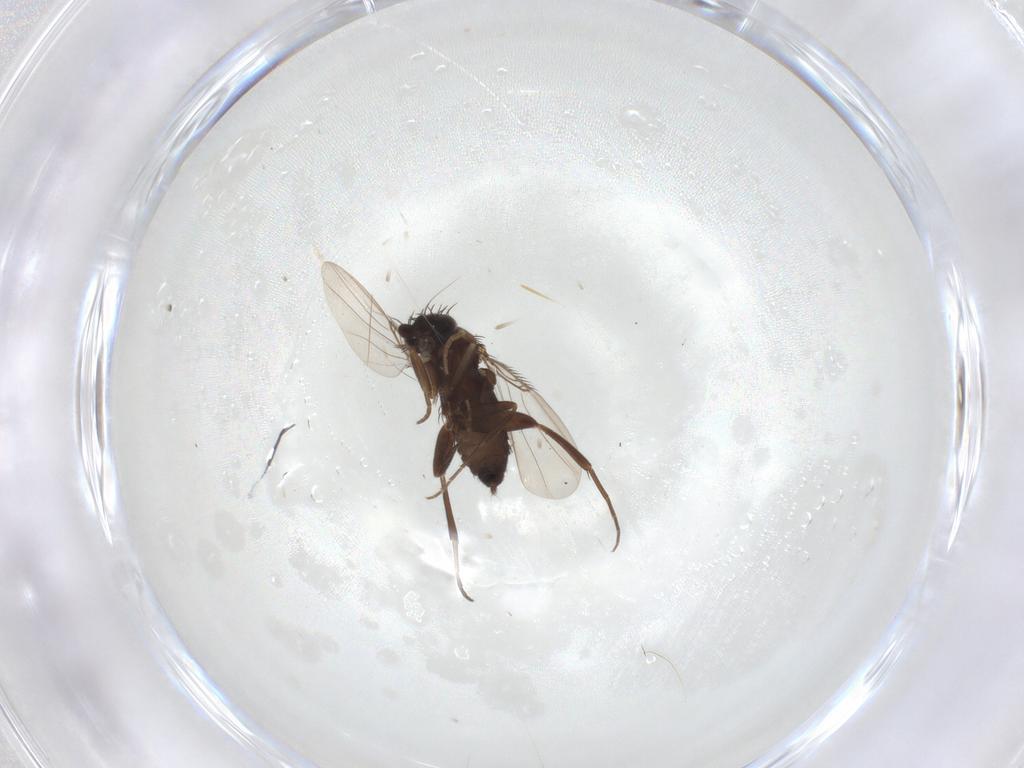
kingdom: Animalia
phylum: Arthropoda
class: Insecta
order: Diptera
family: Phoridae
